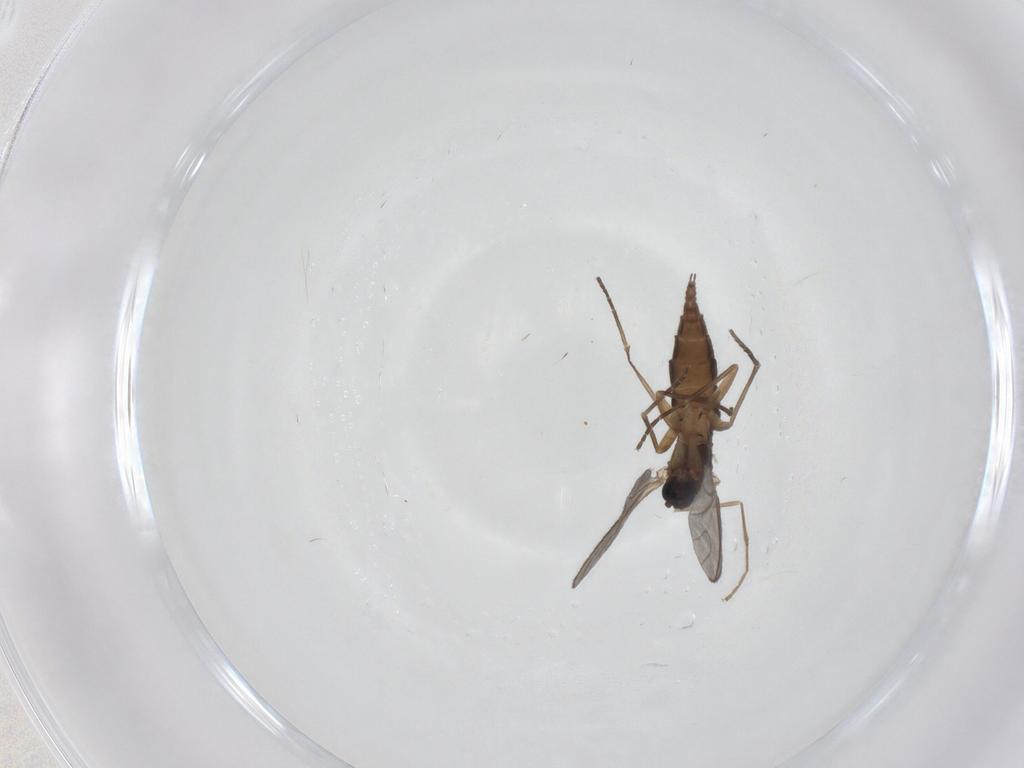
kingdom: Animalia
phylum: Arthropoda
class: Insecta
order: Diptera
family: Sciaridae
